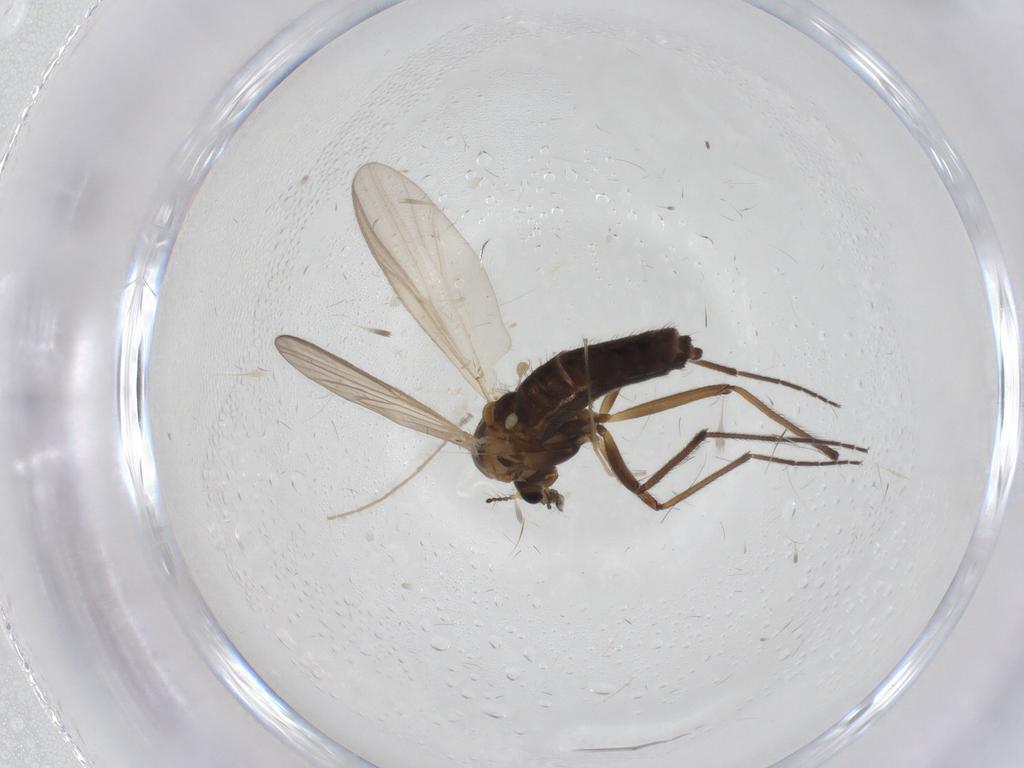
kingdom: Animalia
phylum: Arthropoda
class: Insecta
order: Diptera
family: Chironomidae
